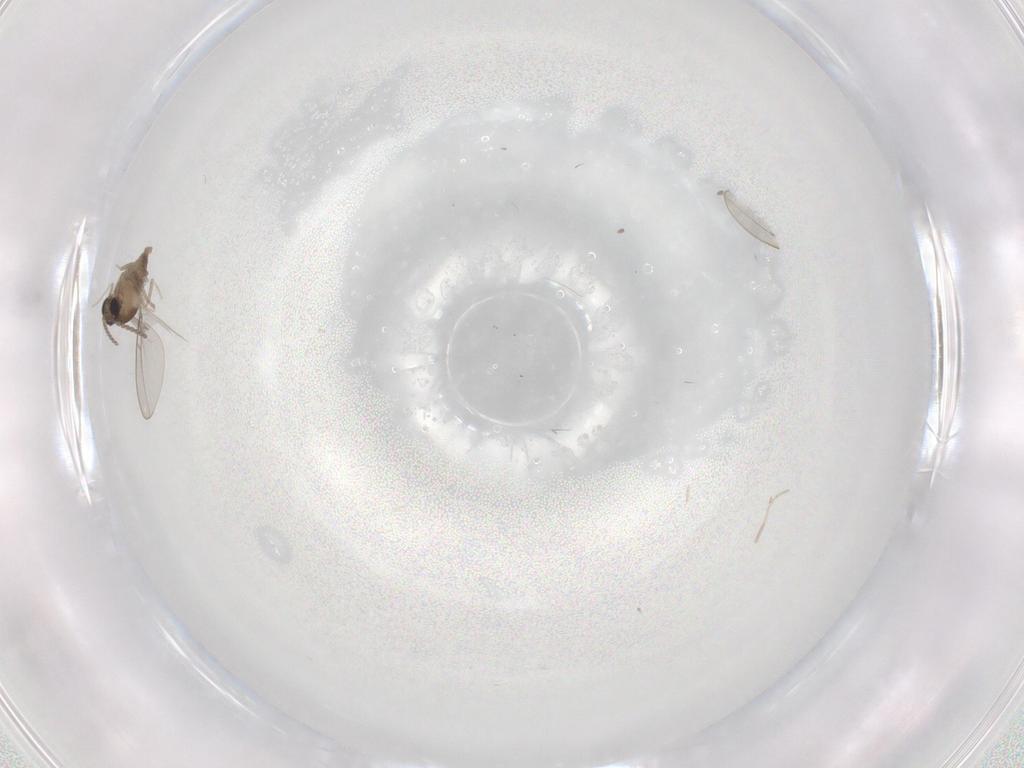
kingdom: Animalia
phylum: Arthropoda
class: Insecta
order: Diptera
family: Cecidomyiidae
